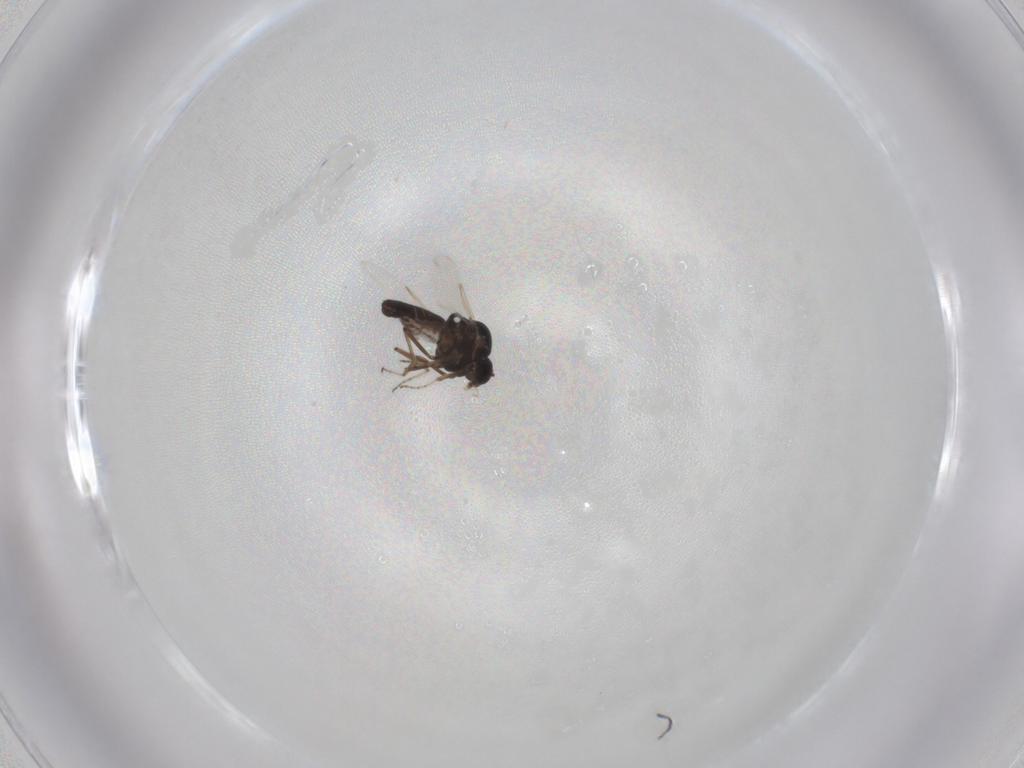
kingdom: Animalia
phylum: Arthropoda
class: Insecta
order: Diptera
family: Ceratopogonidae
